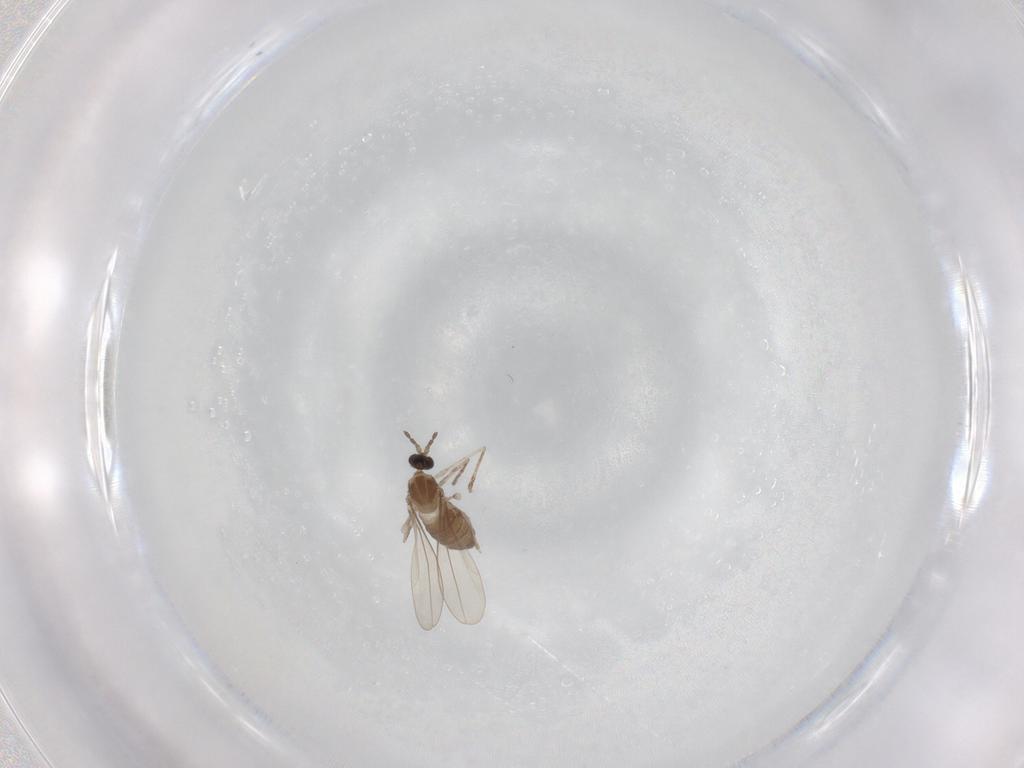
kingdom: Animalia
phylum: Arthropoda
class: Insecta
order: Diptera
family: Cecidomyiidae
